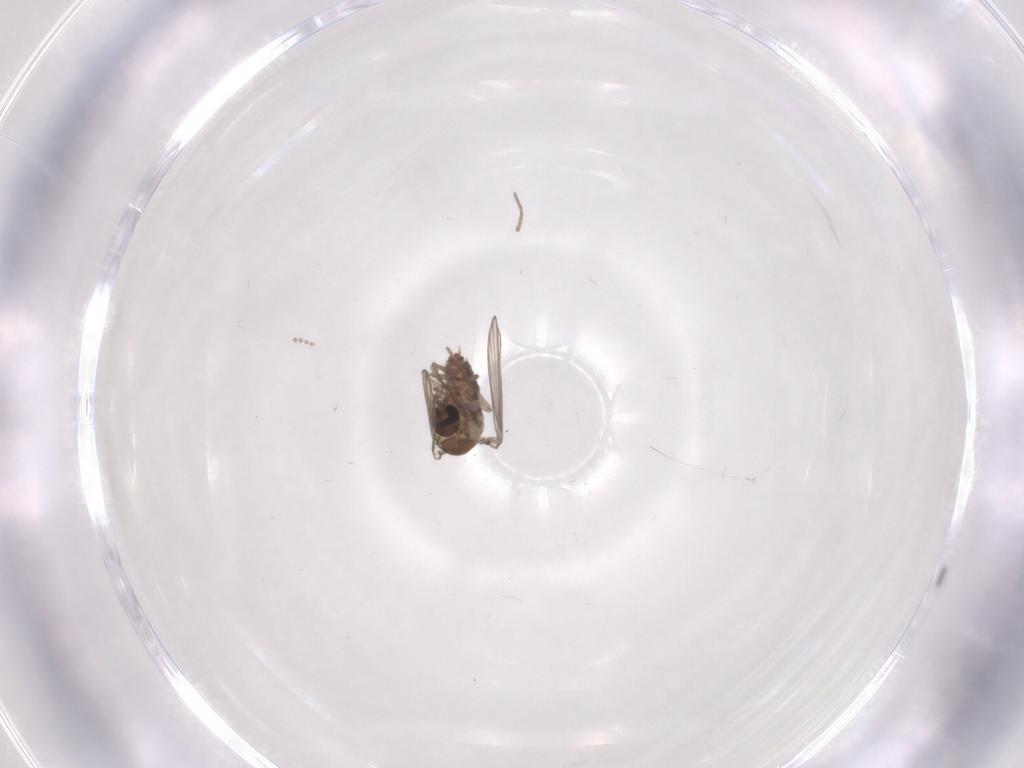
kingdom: Animalia
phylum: Arthropoda
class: Insecta
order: Diptera
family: Psychodidae
